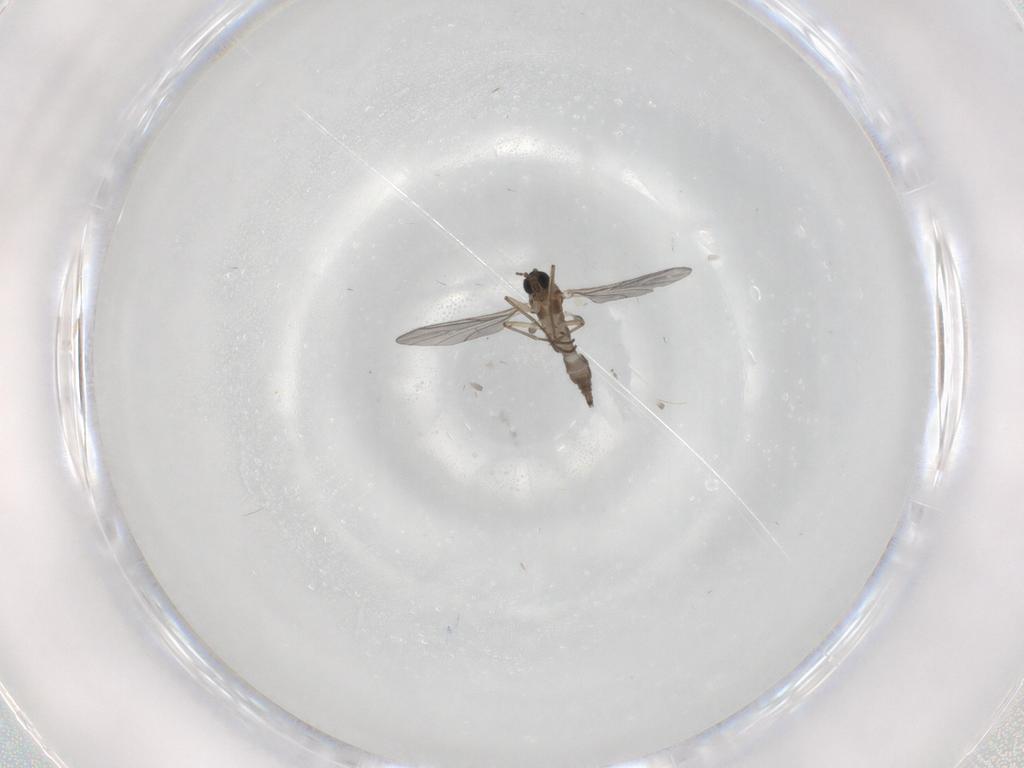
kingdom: Animalia
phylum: Arthropoda
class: Insecta
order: Diptera
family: Sciaridae
